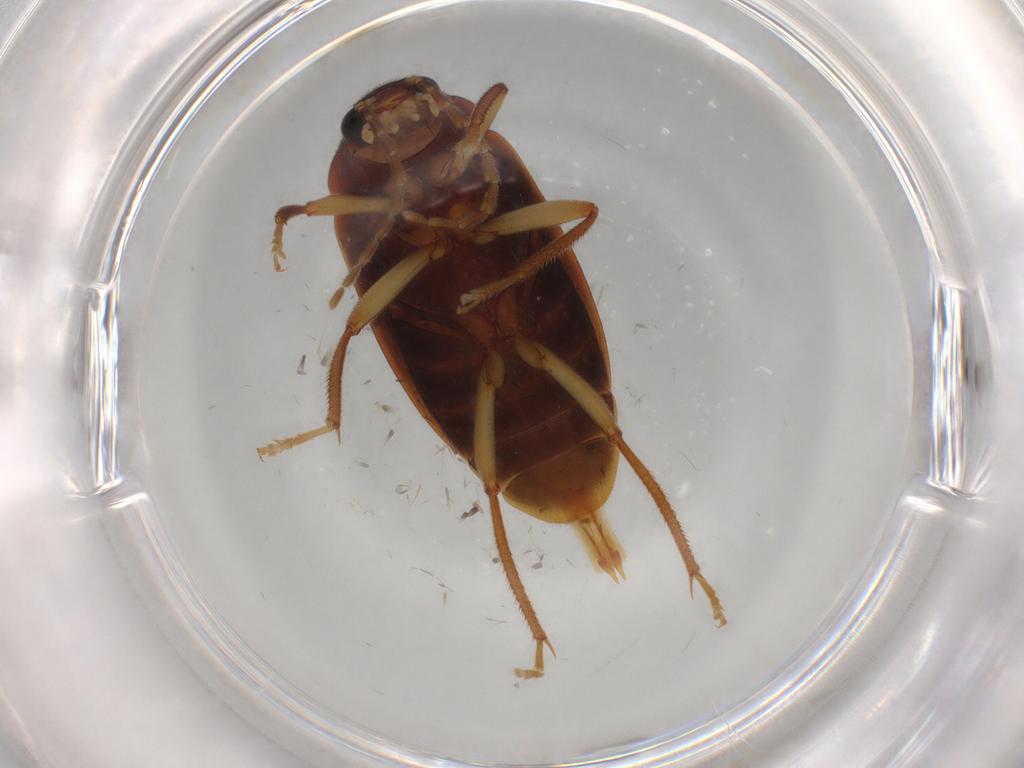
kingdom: Animalia
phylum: Arthropoda
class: Insecta
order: Coleoptera
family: Ptilodactylidae
